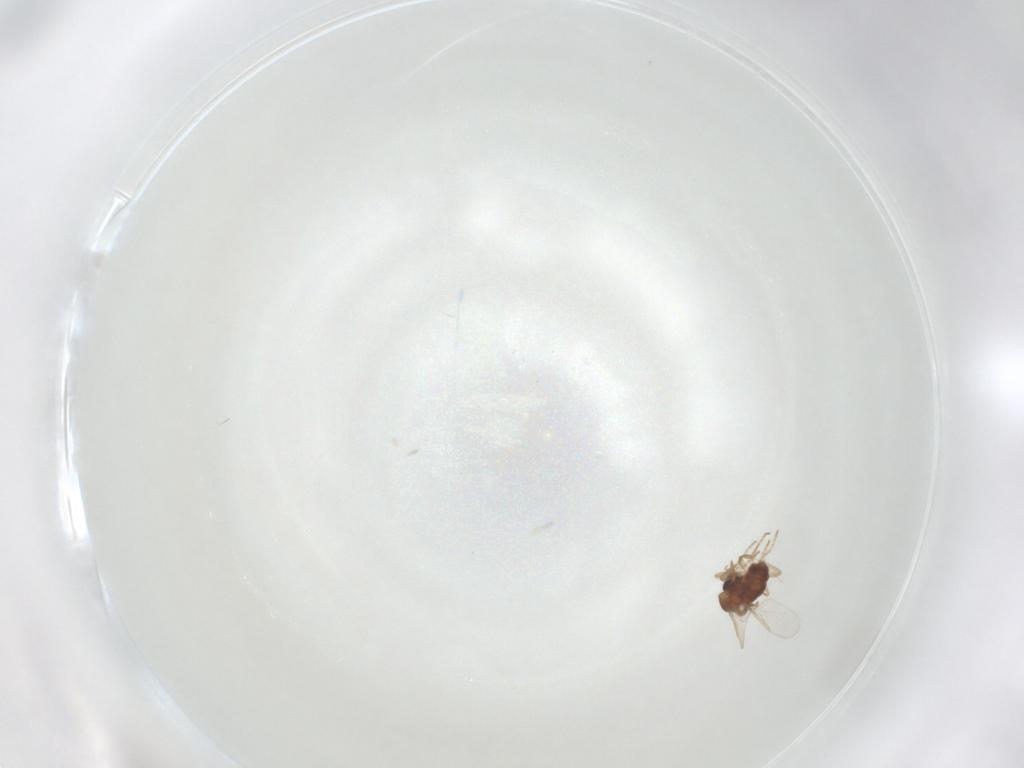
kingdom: Animalia
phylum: Arthropoda
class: Insecta
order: Diptera
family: Ceratopogonidae
